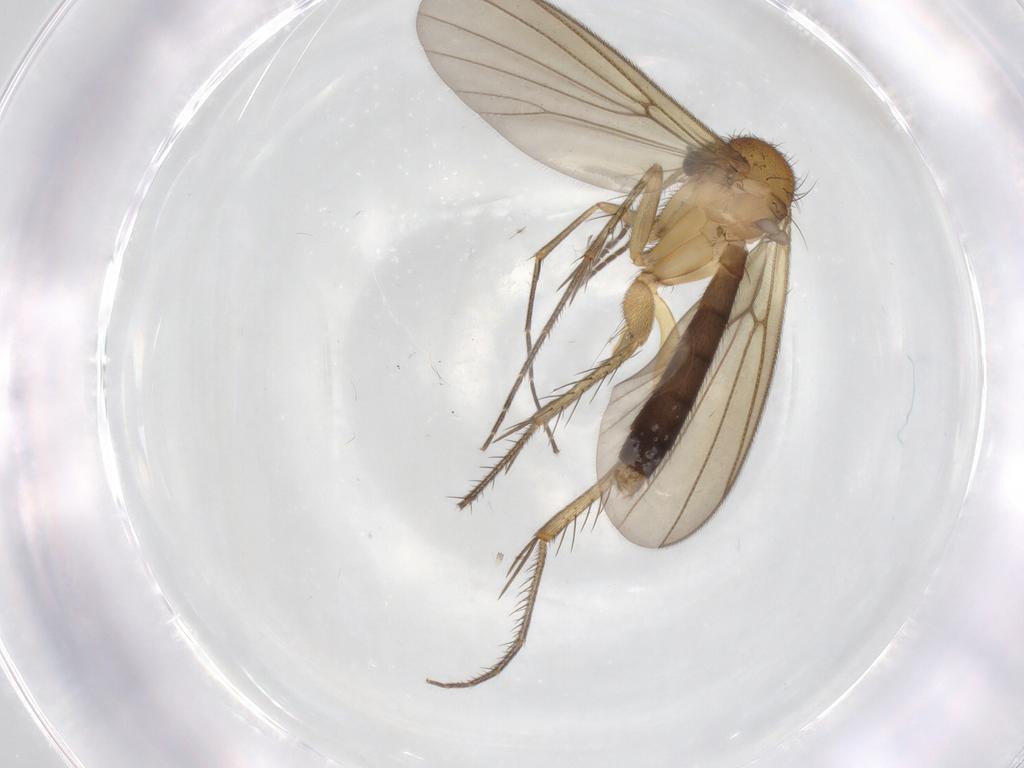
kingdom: Animalia
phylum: Arthropoda
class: Insecta
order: Diptera
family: Mycetophilidae
